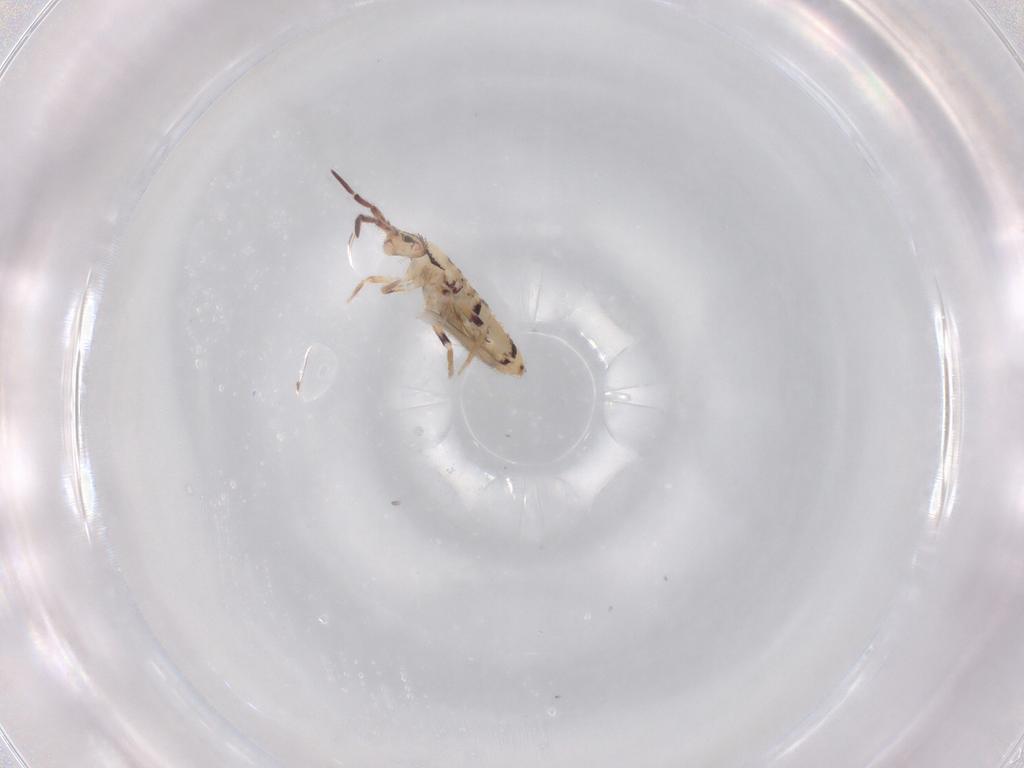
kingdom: Animalia
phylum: Arthropoda
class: Collembola
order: Entomobryomorpha
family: Entomobryidae
